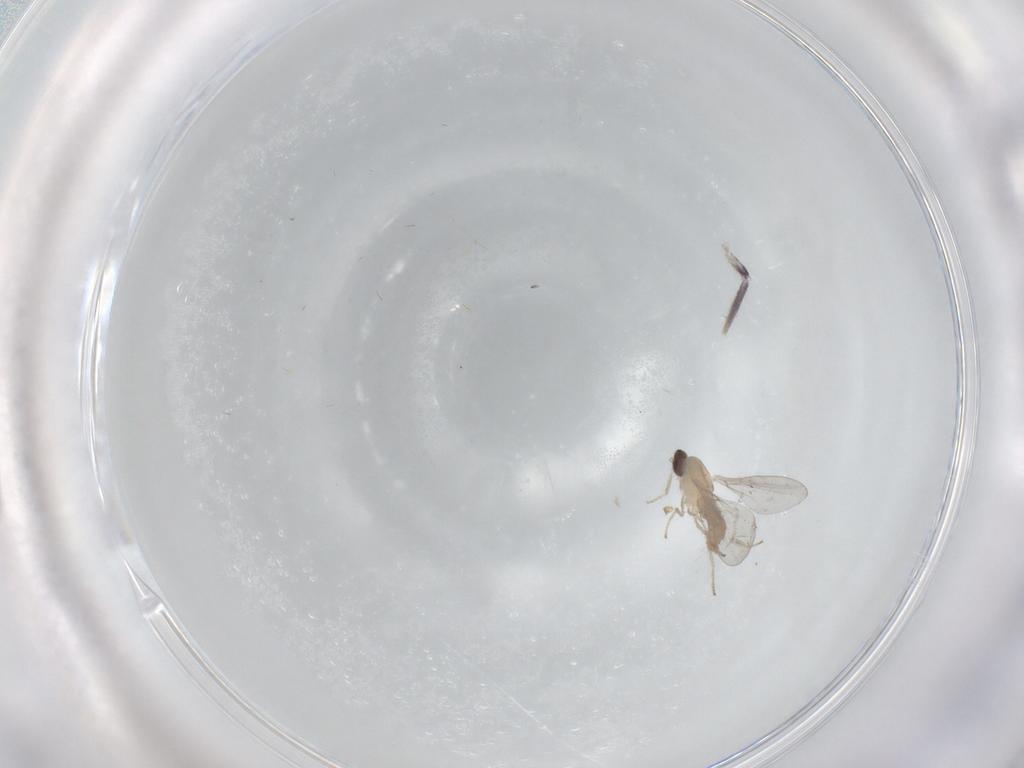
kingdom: Animalia
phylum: Arthropoda
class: Insecta
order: Diptera
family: Cecidomyiidae
